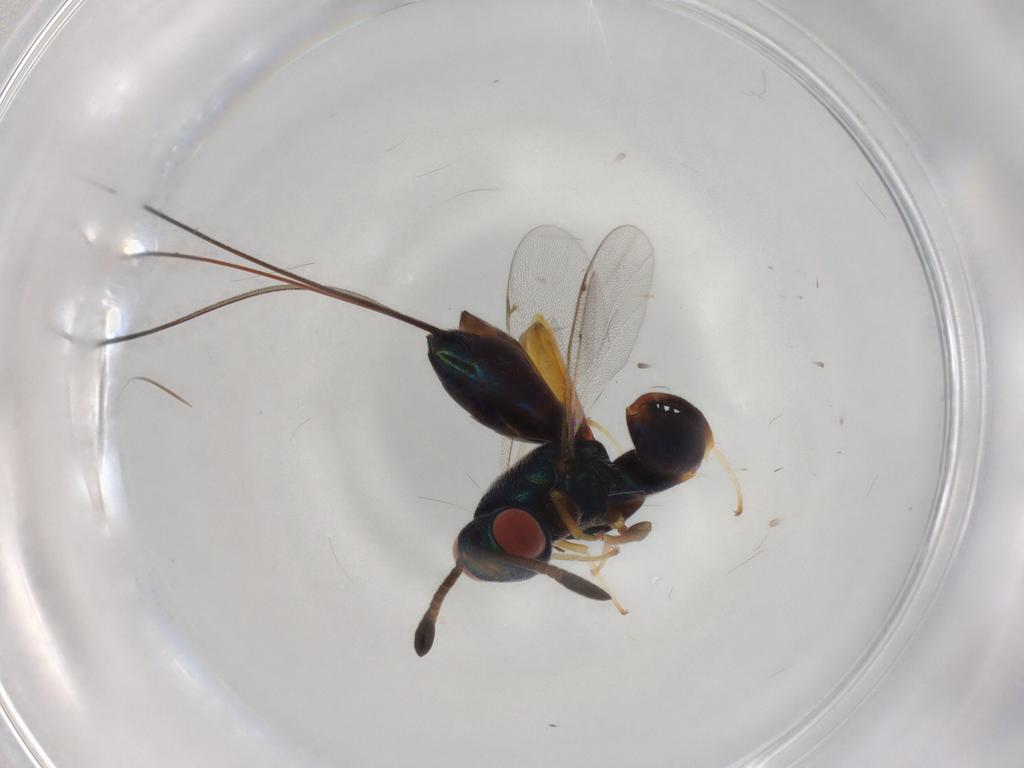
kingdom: Animalia
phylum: Arthropoda
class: Insecta
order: Hymenoptera
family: Torymidae
